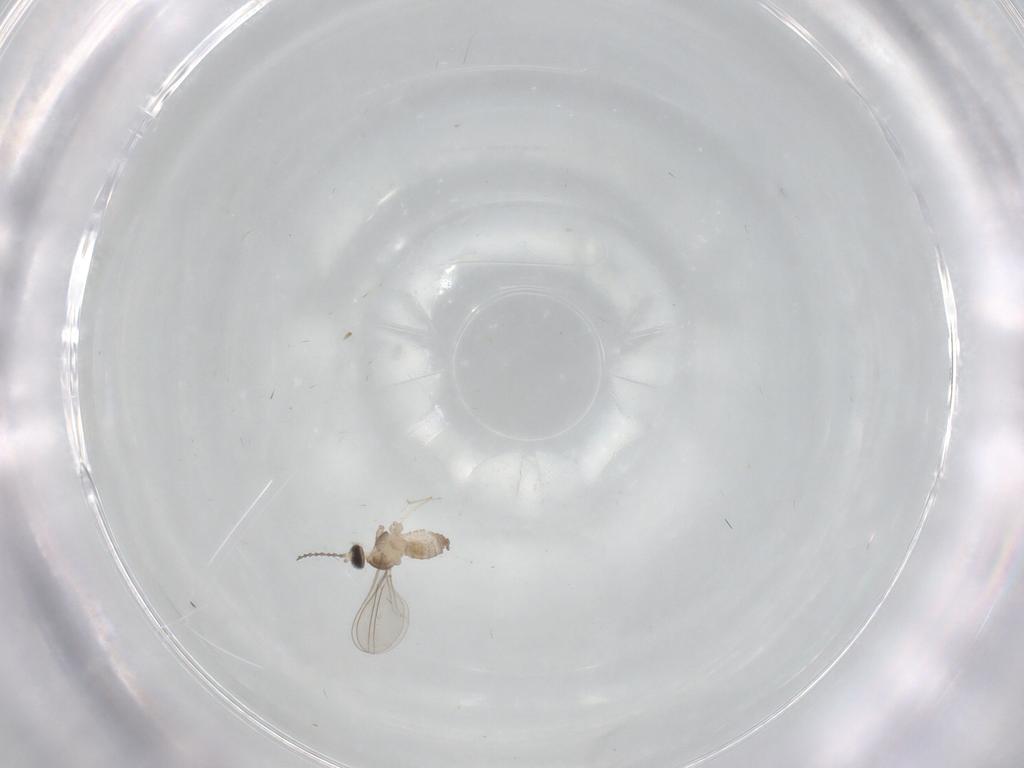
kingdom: Animalia
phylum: Arthropoda
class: Insecta
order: Diptera
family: Cecidomyiidae
